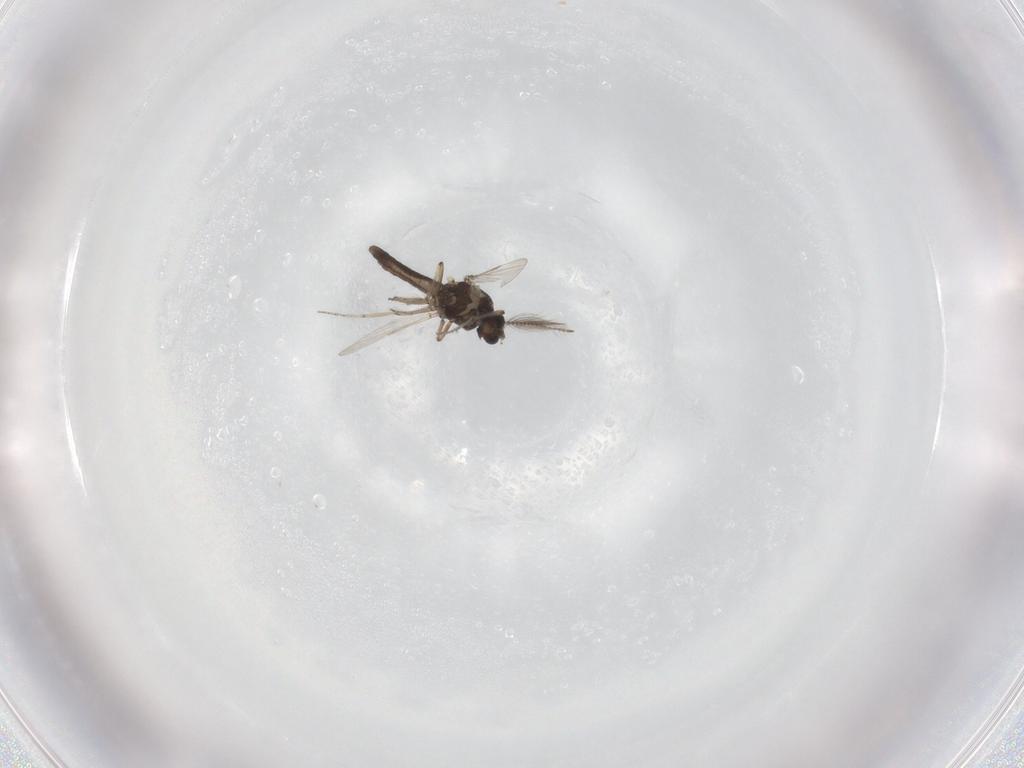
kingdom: Animalia
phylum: Arthropoda
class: Insecta
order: Diptera
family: Ceratopogonidae
